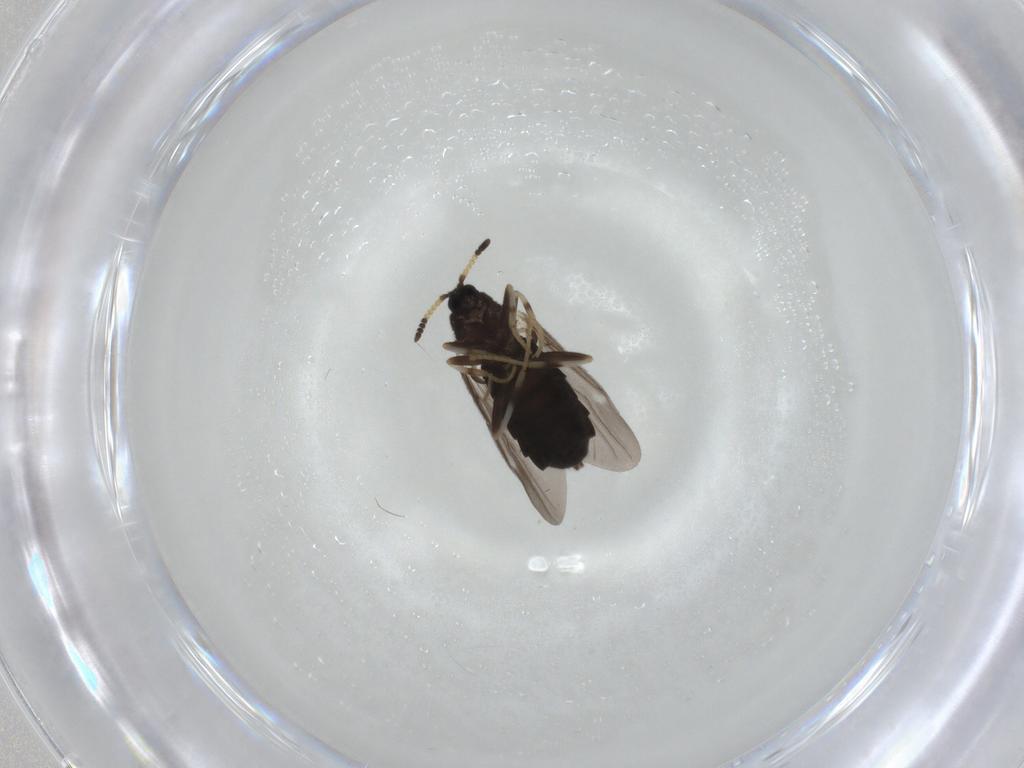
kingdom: Animalia
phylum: Arthropoda
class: Insecta
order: Diptera
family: Scatopsidae
